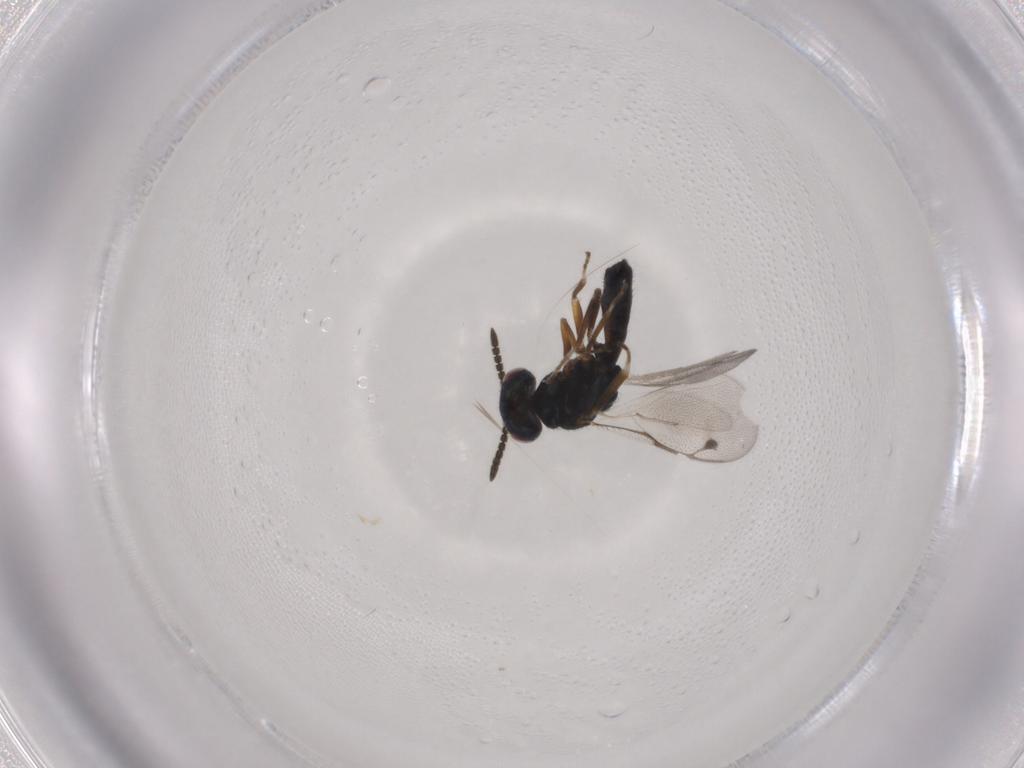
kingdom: Animalia
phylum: Arthropoda
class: Insecta
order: Hymenoptera
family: Pteromalidae
